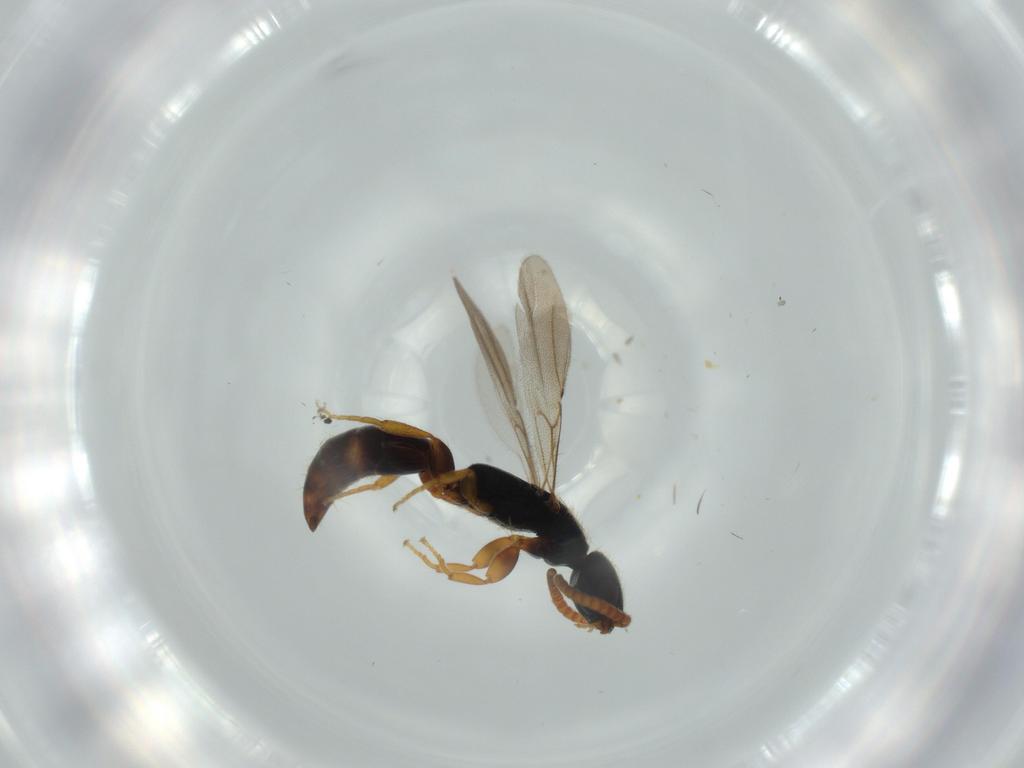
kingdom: Animalia
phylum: Arthropoda
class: Insecta
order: Hymenoptera
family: Bethylidae
